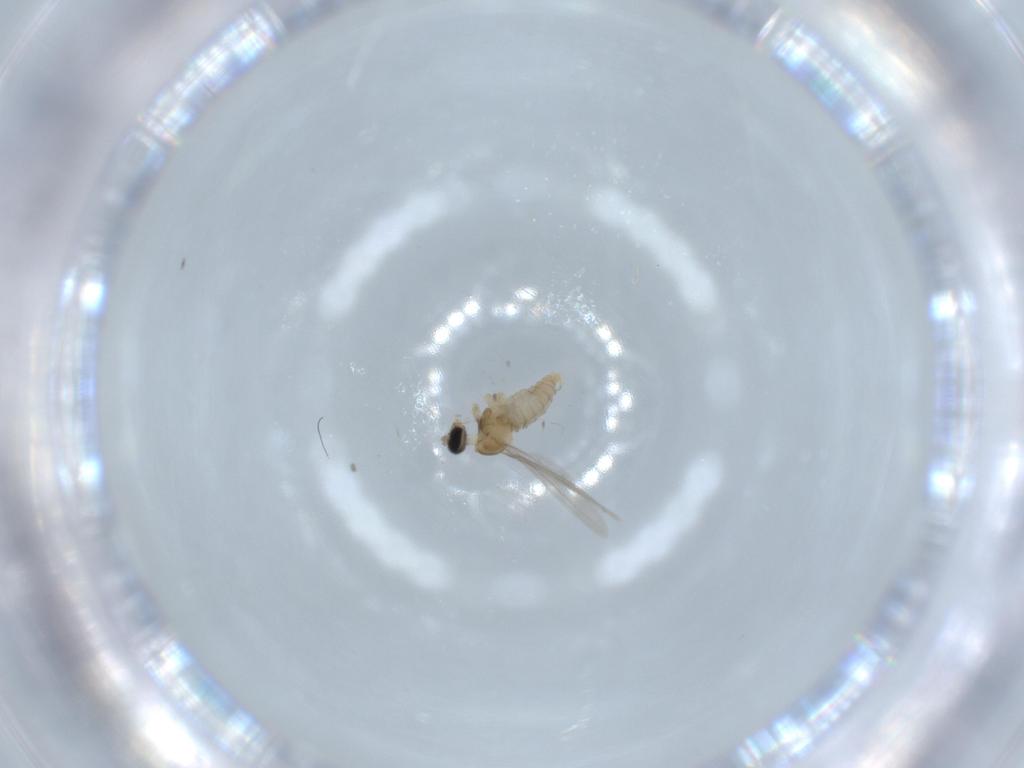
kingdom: Animalia
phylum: Arthropoda
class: Insecta
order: Diptera
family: Cecidomyiidae
